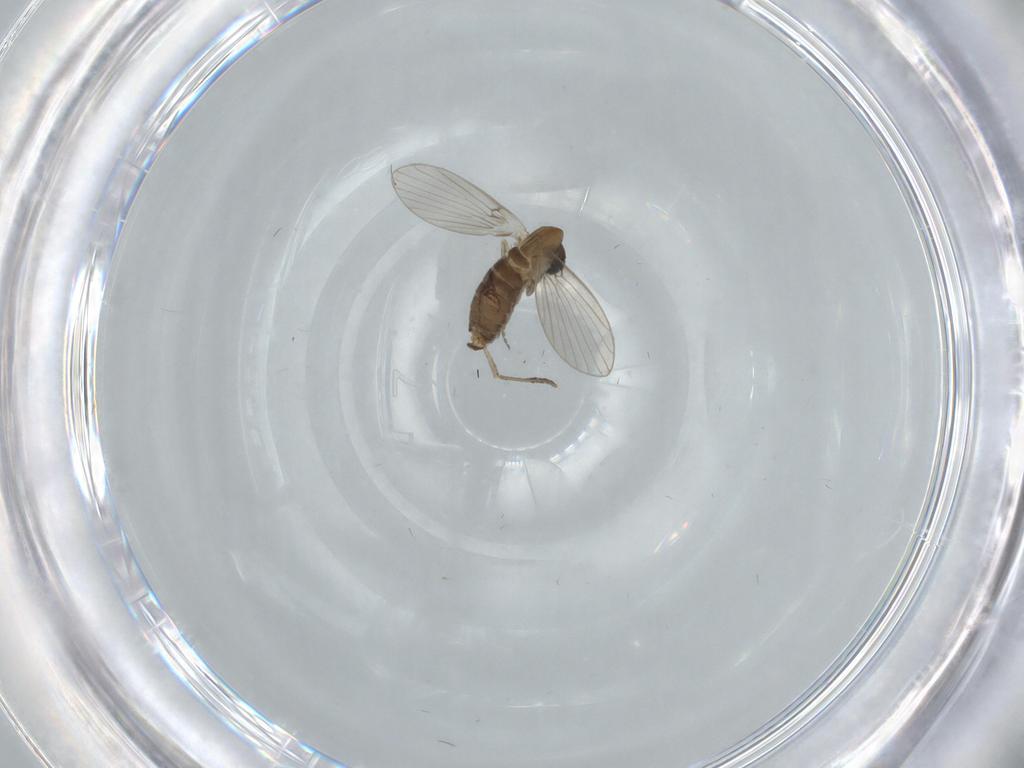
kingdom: Animalia
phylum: Arthropoda
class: Insecta
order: Diptera
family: Psychodidae
